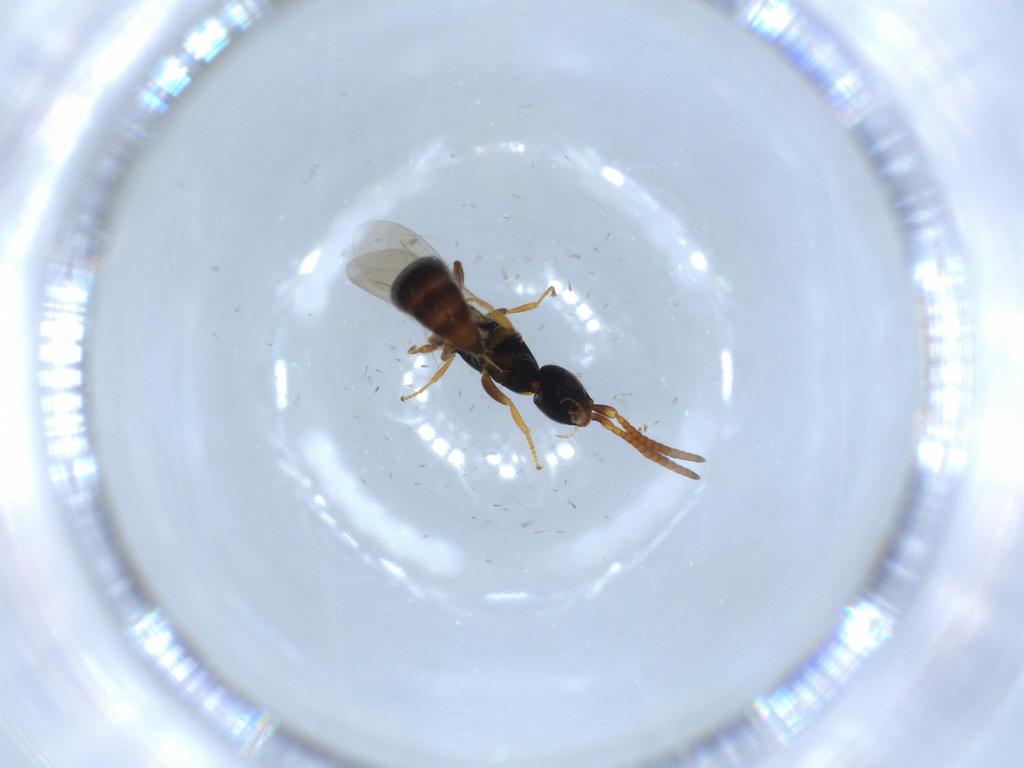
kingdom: Animalia
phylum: Arthropoda
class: Insecta
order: Hymenoptera
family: Bethylidae
